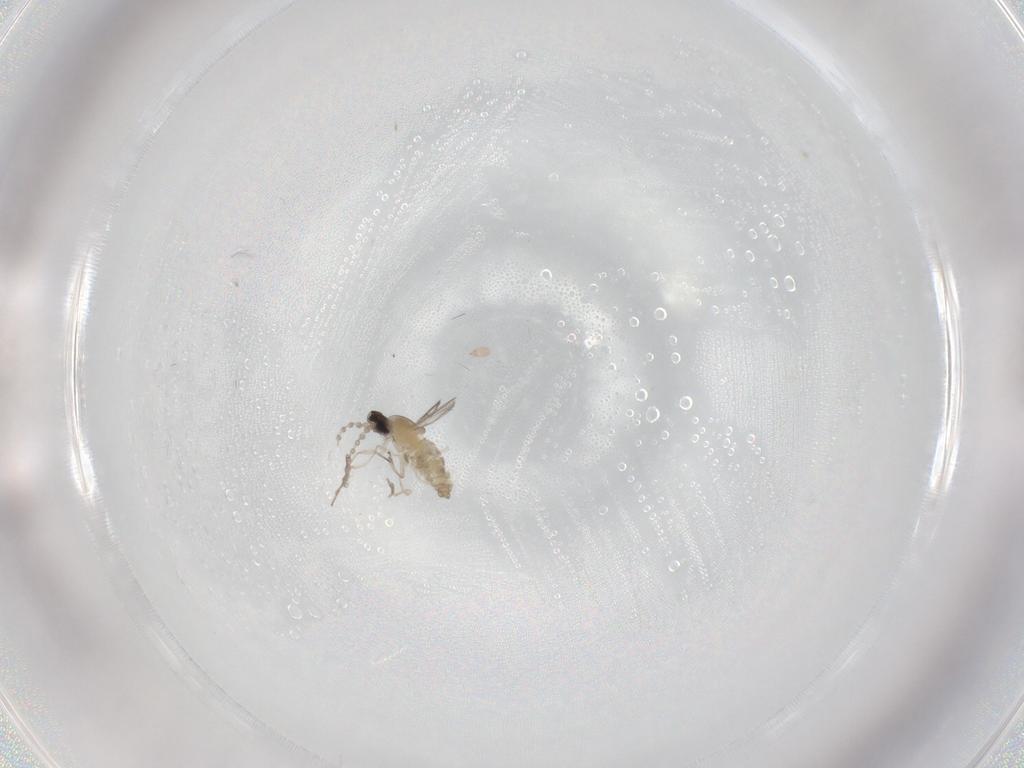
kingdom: Animalia
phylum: Arthropoda
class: Insecta
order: Diptera
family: Cecidomyiidae
